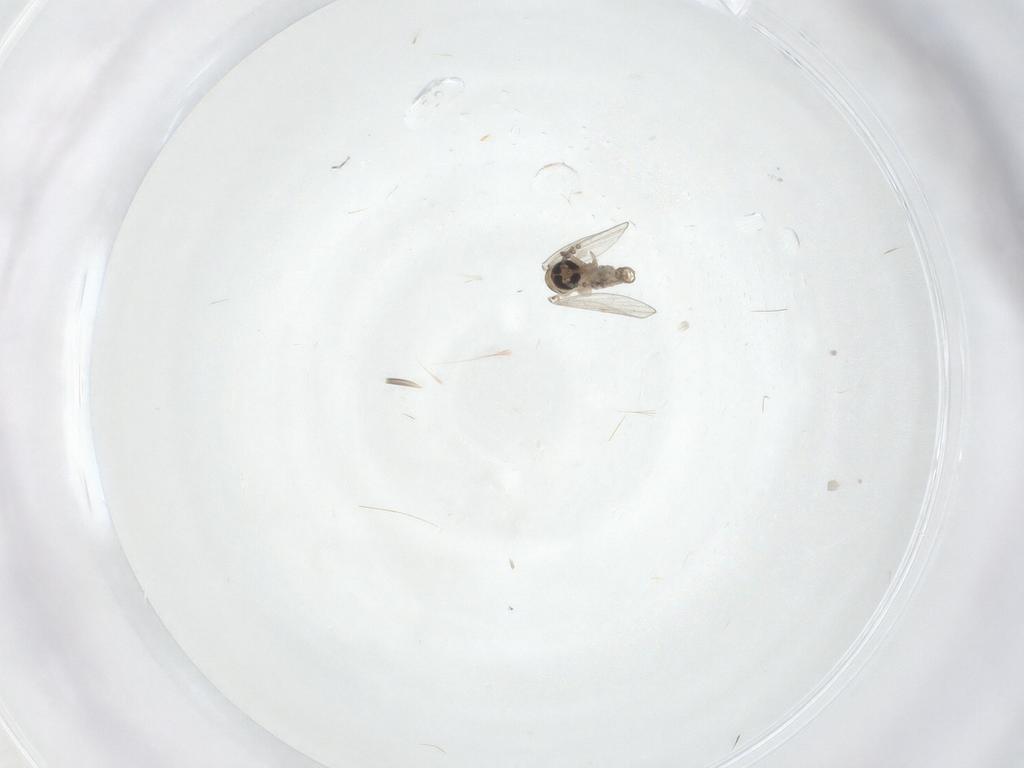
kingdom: Animalia
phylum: Arthropoda
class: Insecta
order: Diptera
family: Psychodidae
